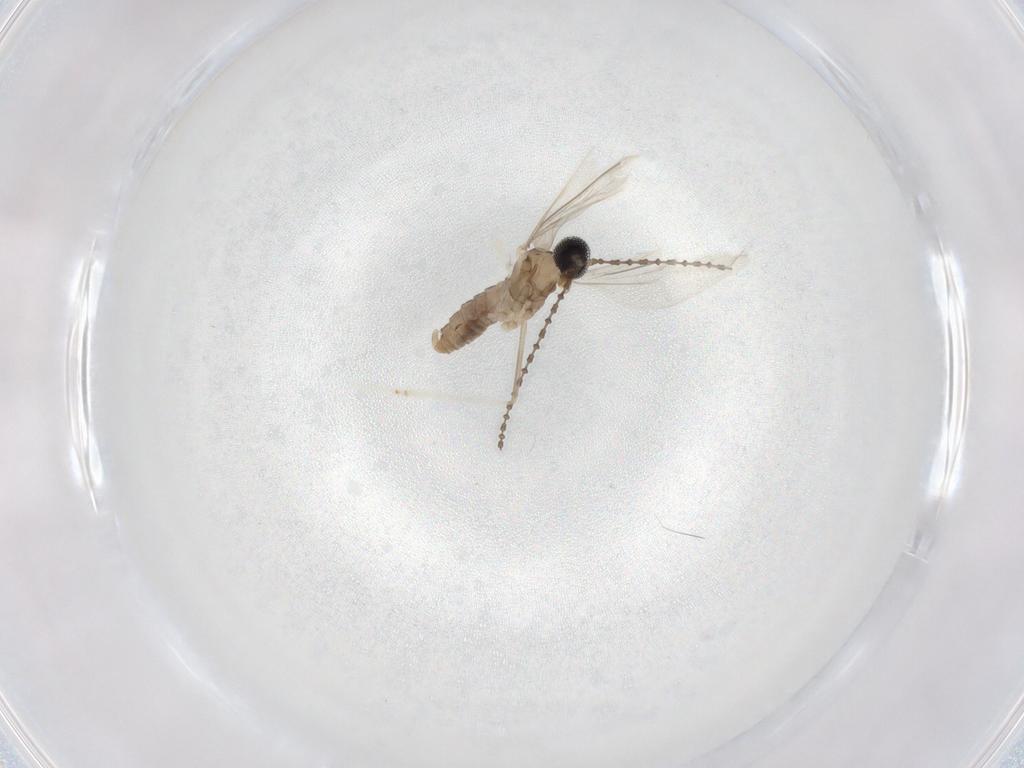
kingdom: Animalia
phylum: Arthropoda
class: Insecta
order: Diptera
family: Cecidomyiidae
